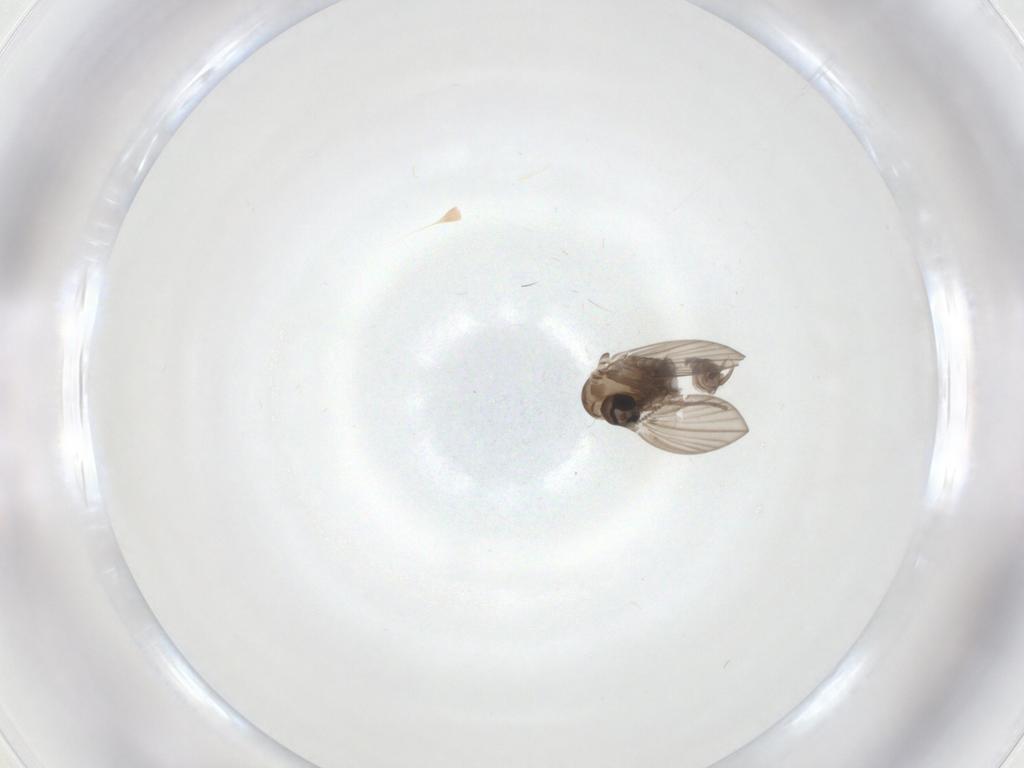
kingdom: Animalia
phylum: Arthropoda
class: Insecta
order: Diptera
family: Psychodidae
